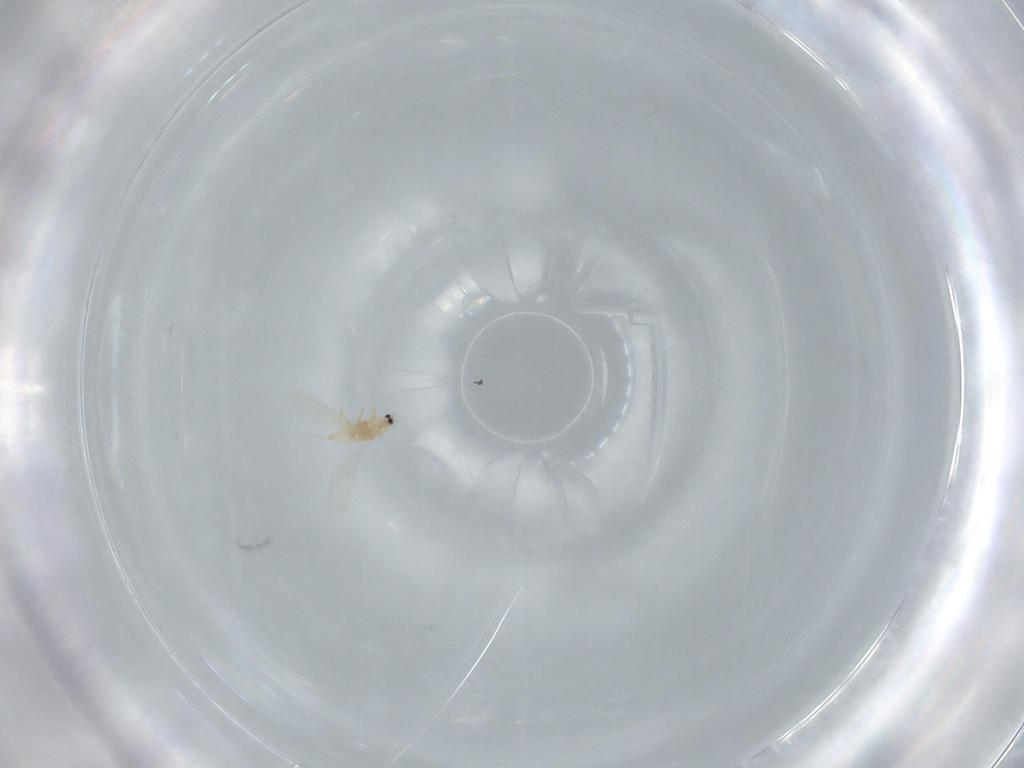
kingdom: Animalia
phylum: Arthropoda
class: Insecta
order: Hemiptera
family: Diaspididae
